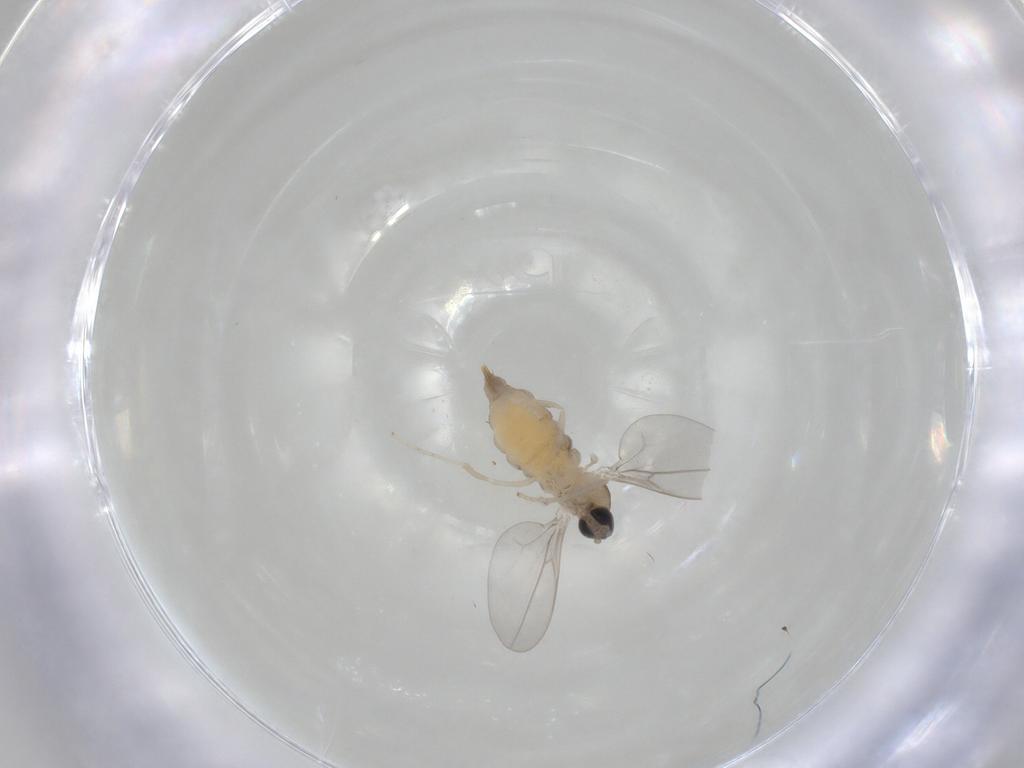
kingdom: Animalia
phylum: Arthropoda
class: Insecta
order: Diptera
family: Cecidomyiidae
